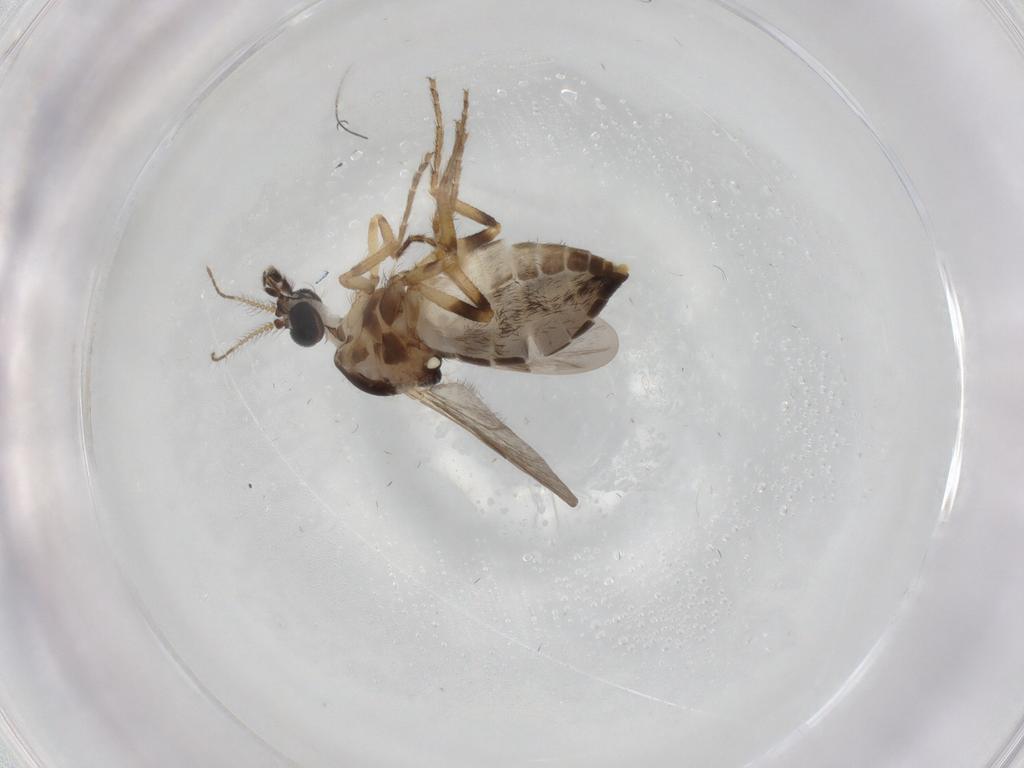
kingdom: Animalia
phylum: Arthropoda
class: Insecta
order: Diptera
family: Ceratopogonidae
